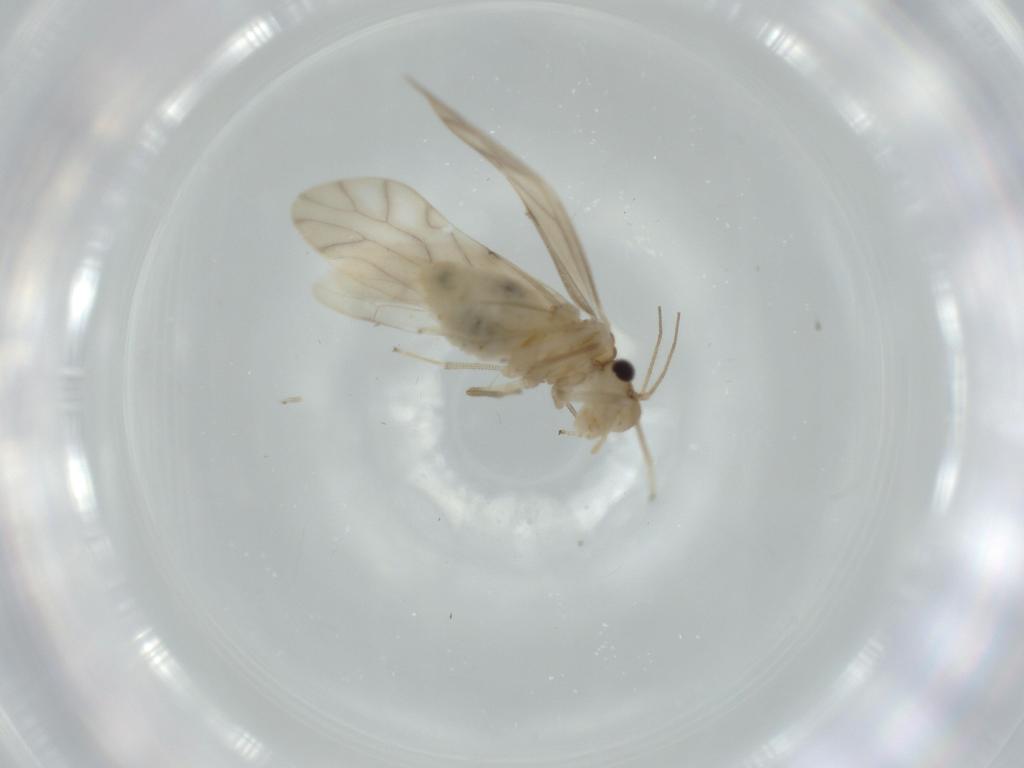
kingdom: Animalia
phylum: Arthropoda
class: Insecta
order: Psocodea
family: Caeciliusidae
